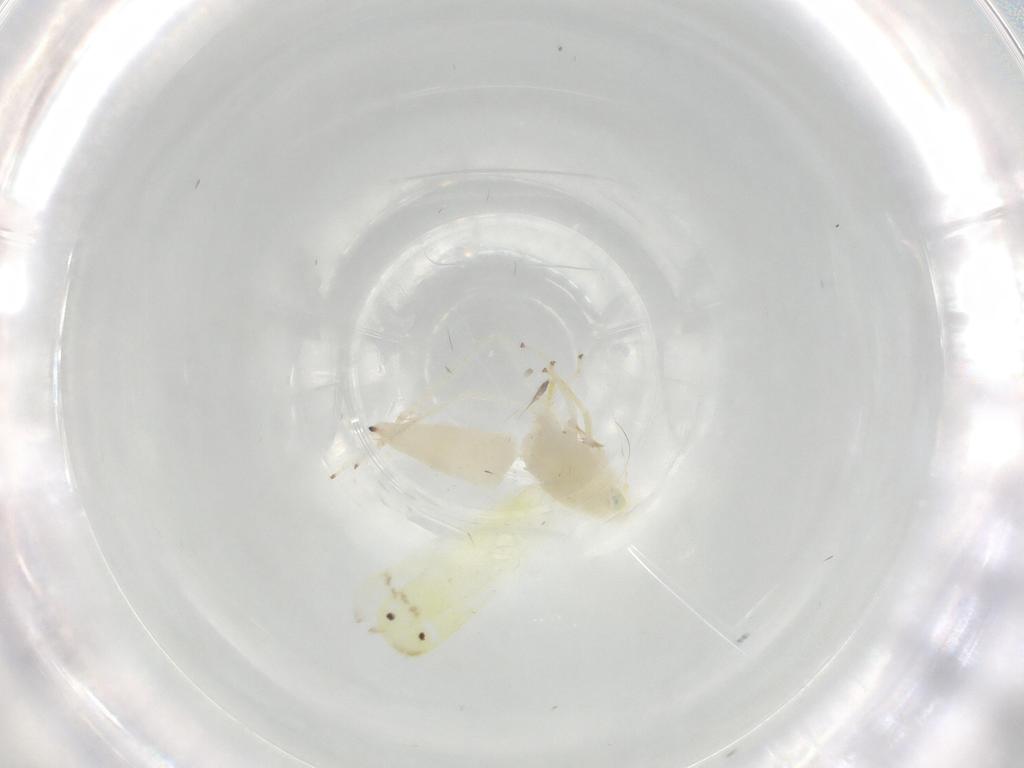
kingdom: Animalia
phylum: Arthropoda
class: Insecta
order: Hemiptera
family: Cicadellidae
